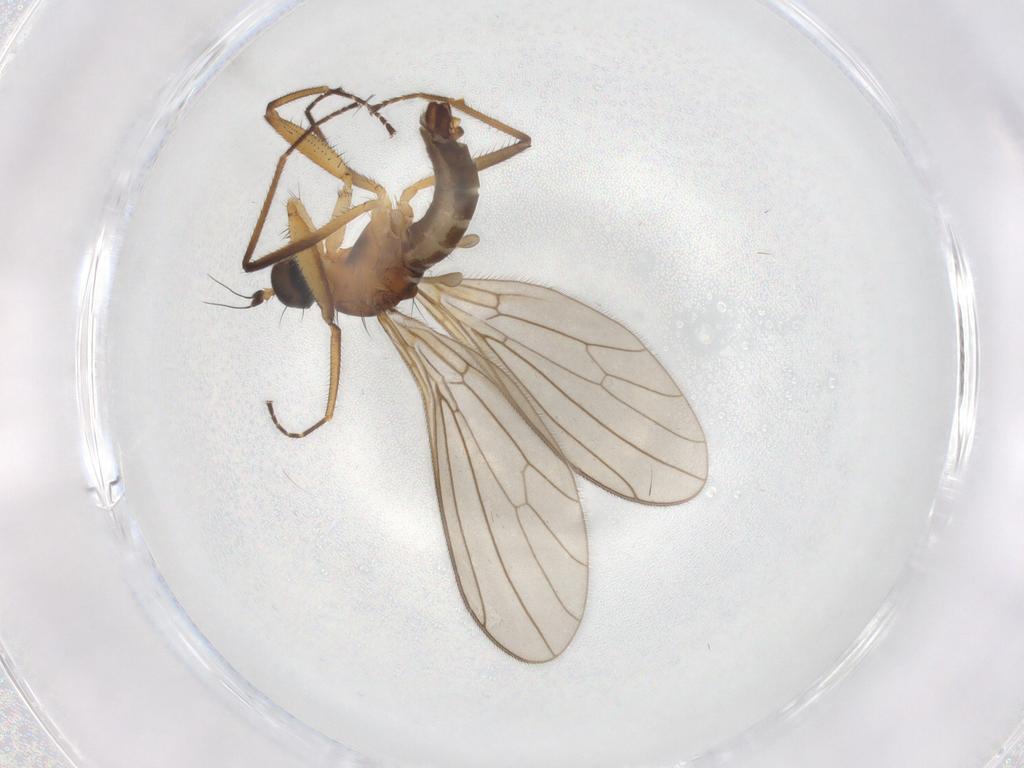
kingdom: Animalia
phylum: Arthropoda
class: Insecta
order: Diptera
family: Empididae
